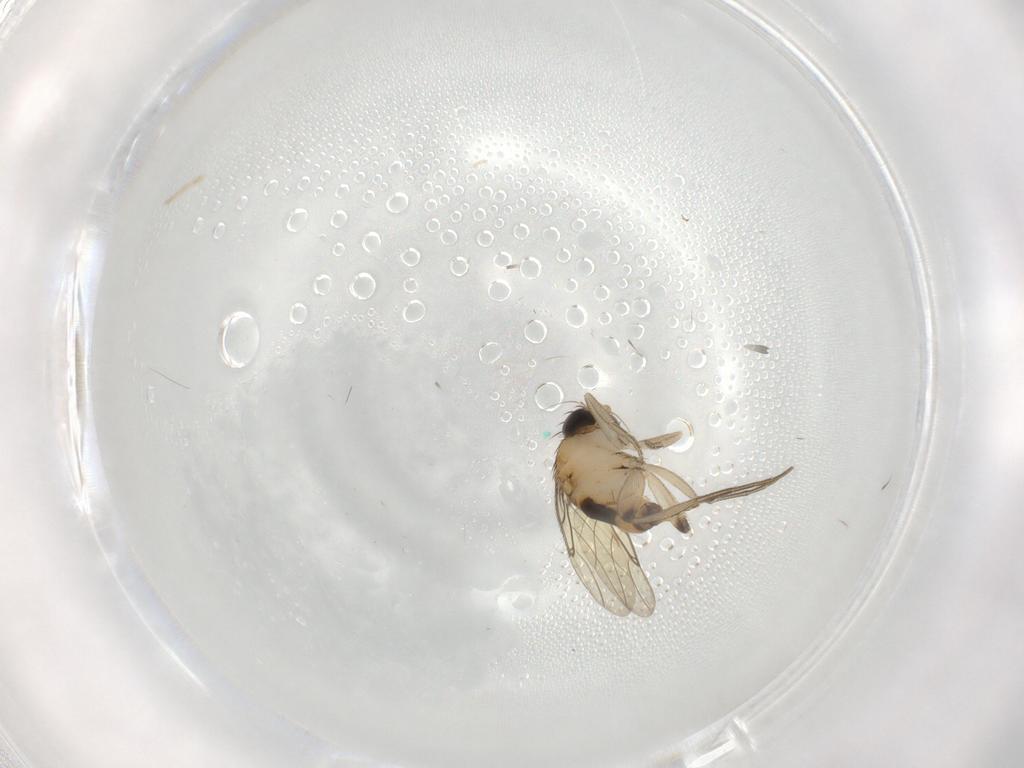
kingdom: Animalia
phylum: Arthropoda
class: Insecta
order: Diptera
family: Phoridae
